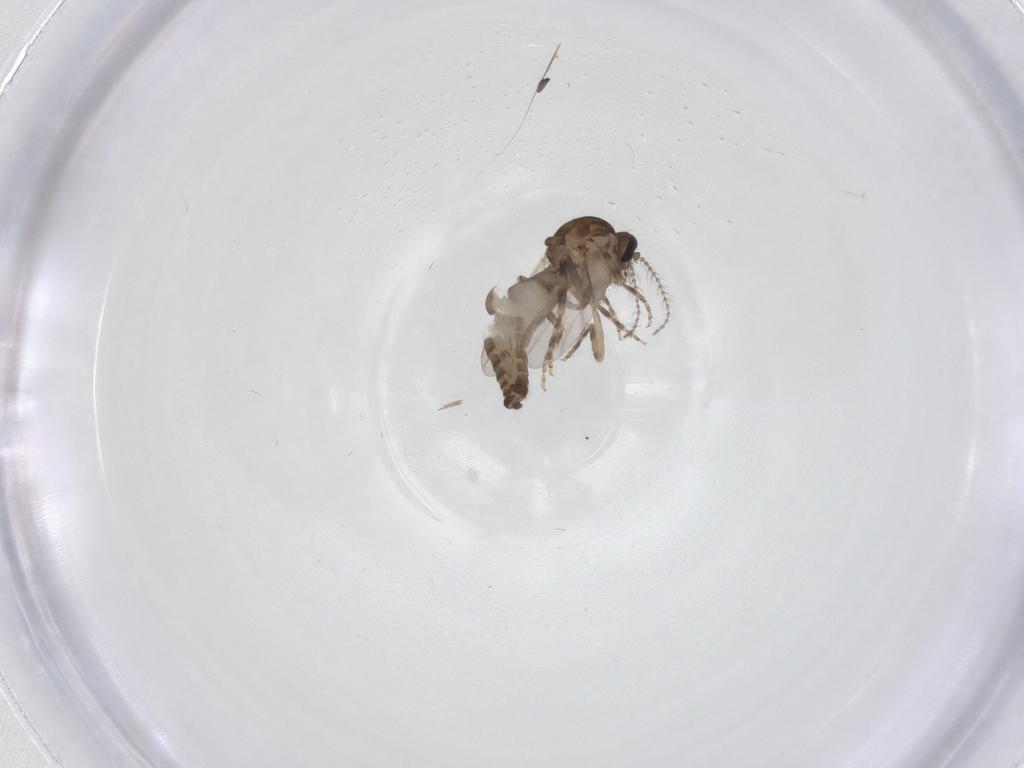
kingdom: Animalia
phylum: Arthropoda
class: Insecta
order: Diptera
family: Ceratopogonidae
